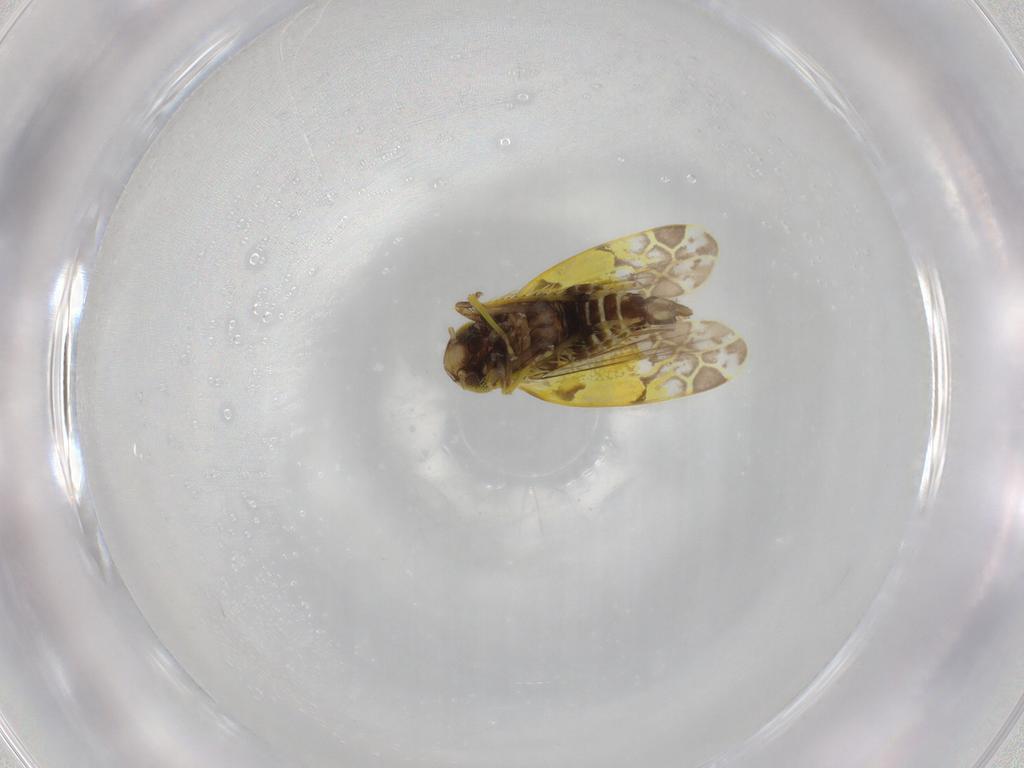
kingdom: Animalia
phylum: Arthropoda
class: Insecta
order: Hemiptera
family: Cicadellidae
